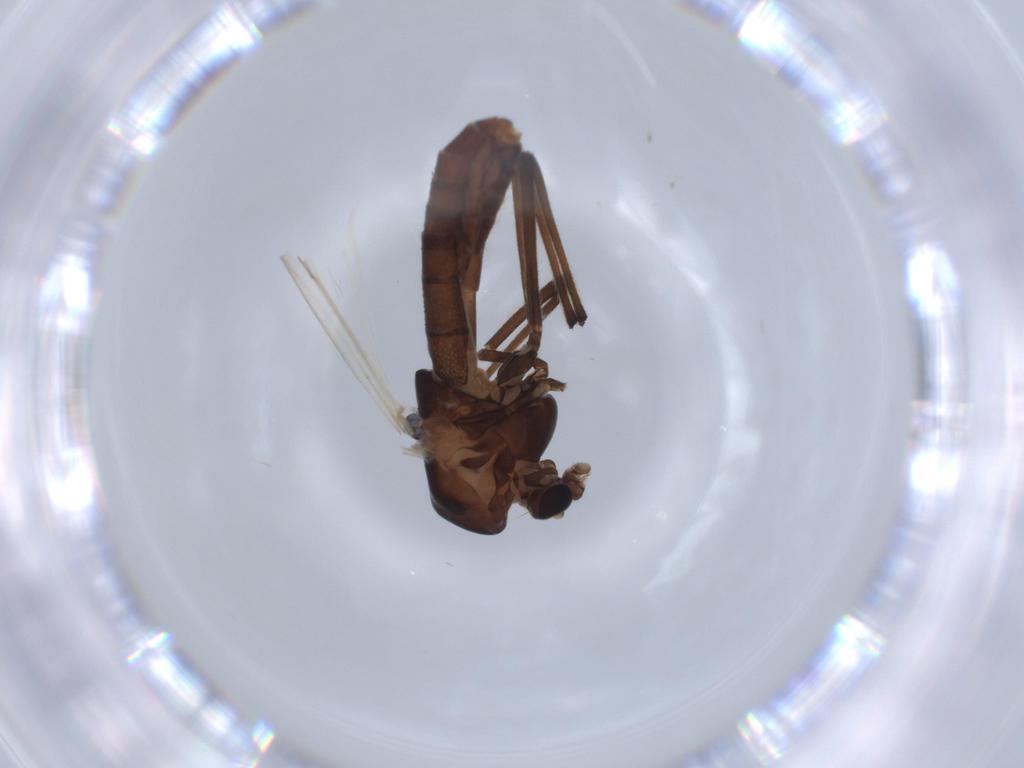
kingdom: Animalia
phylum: Arthropoda
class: Insecta
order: Diptera
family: Chironomidae
